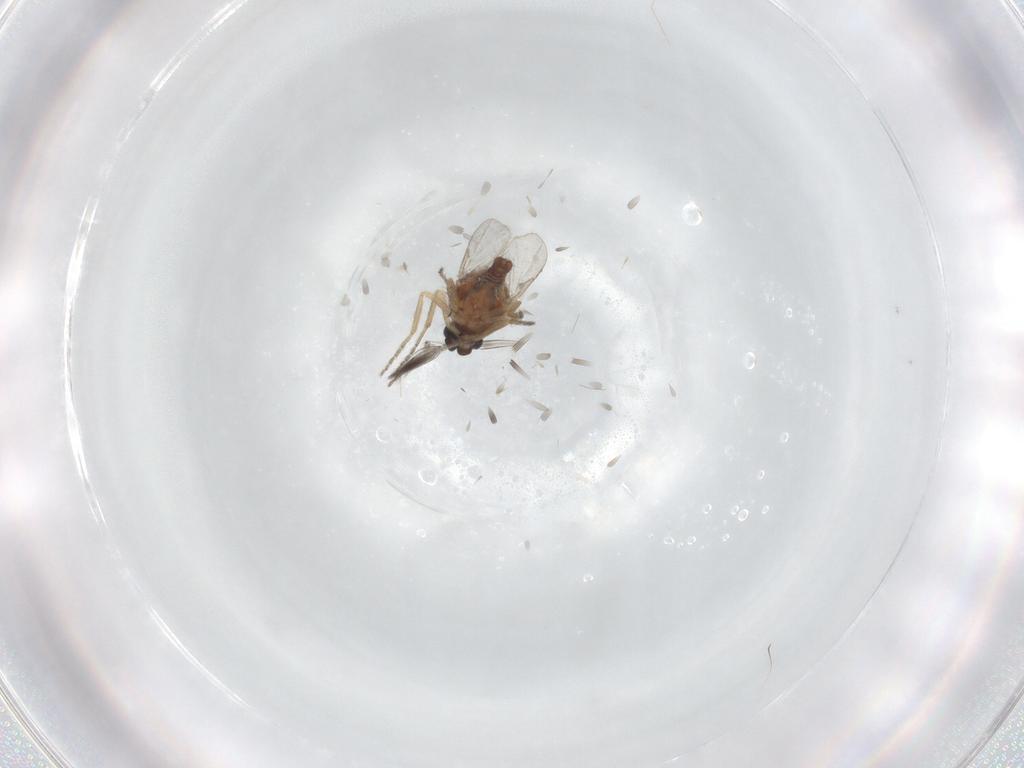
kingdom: Animalia
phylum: Arthropoda
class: Insecta
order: Diptera
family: Ceratopogonidae
